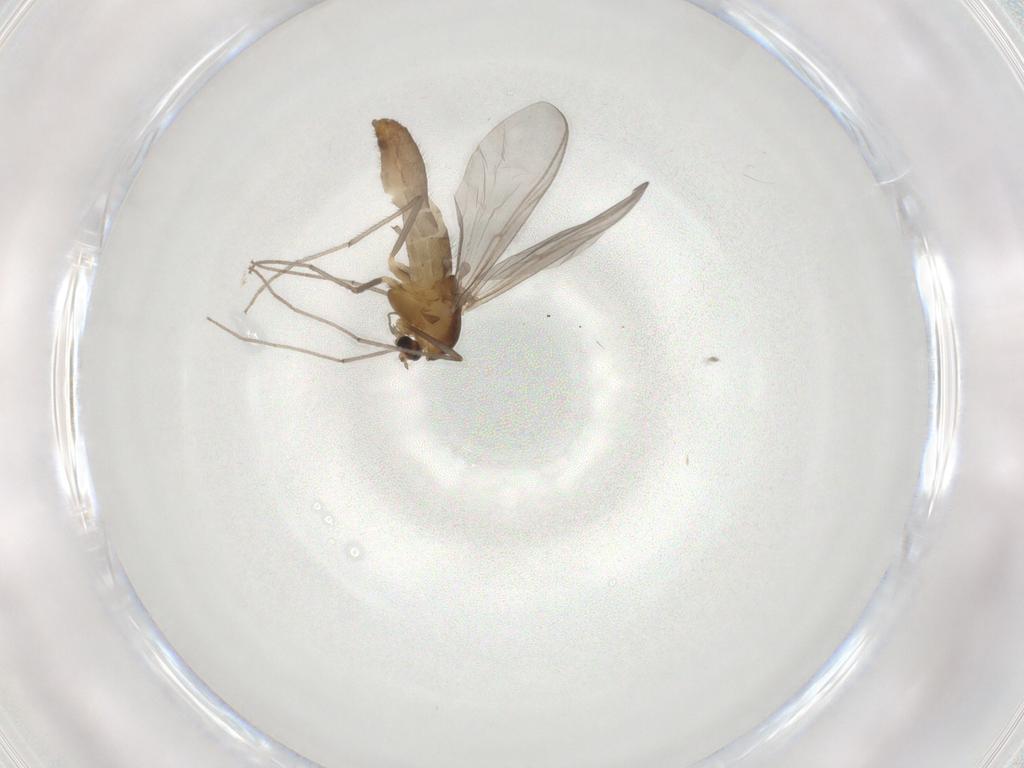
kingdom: Animalia
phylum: Arthropoda
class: Insecta
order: Diptera
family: Chironomidae
